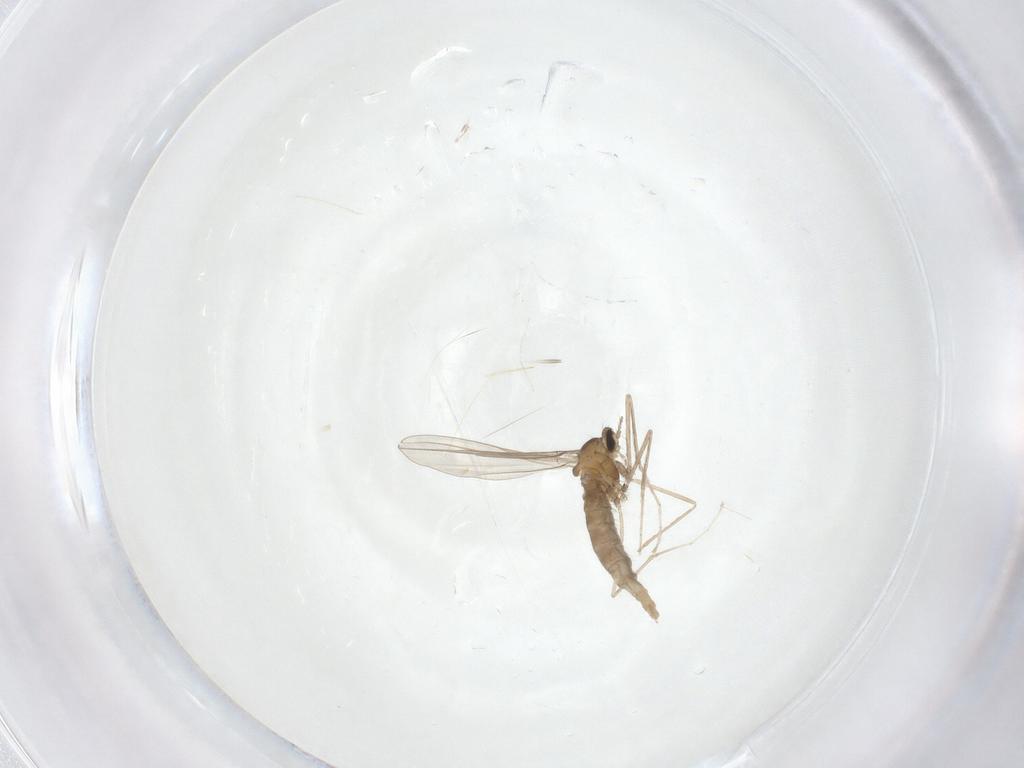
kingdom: Animalia
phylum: Arthropoda
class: Insecta
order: Diptera
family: Cecidomyiidae
